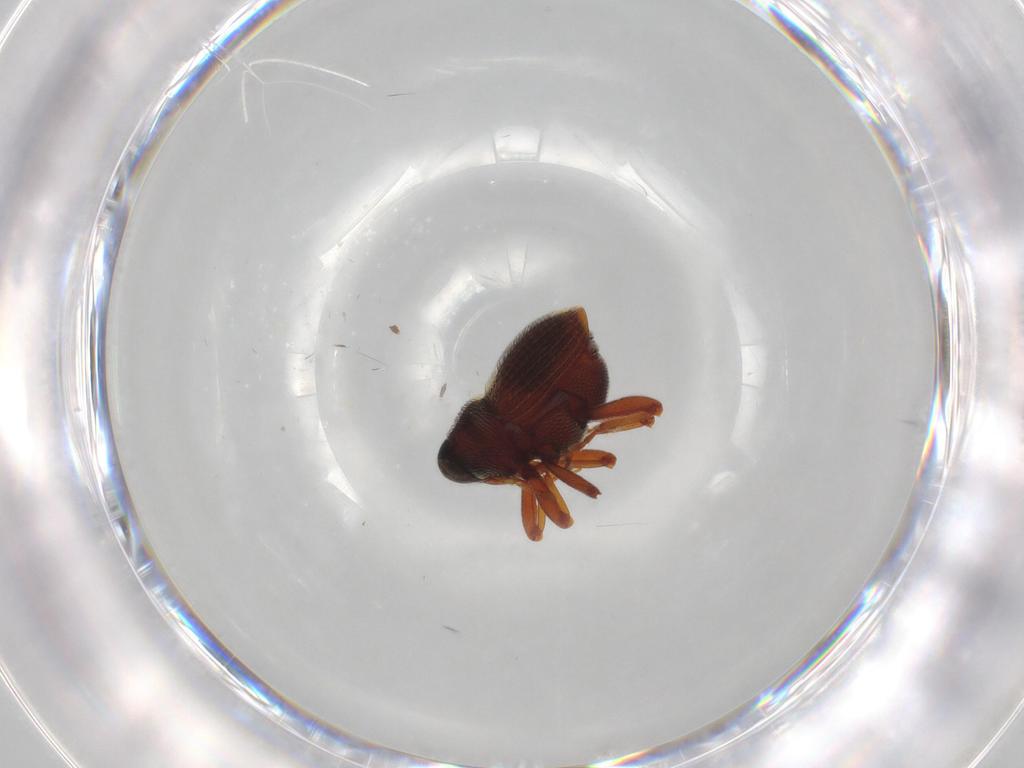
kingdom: Animalia
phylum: Arthropoda
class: Insecta
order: Coleoptera
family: Curculionidae
